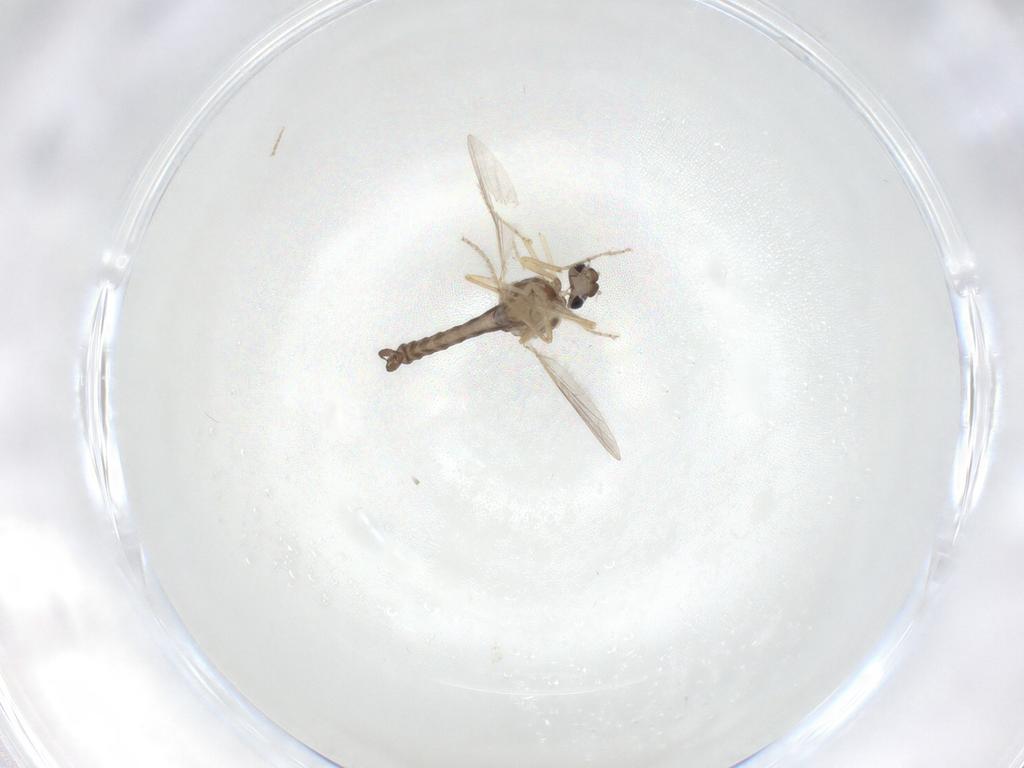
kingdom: Animalia
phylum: Arthropoda
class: Insecta
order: Diptera
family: Ceratopogonidae
